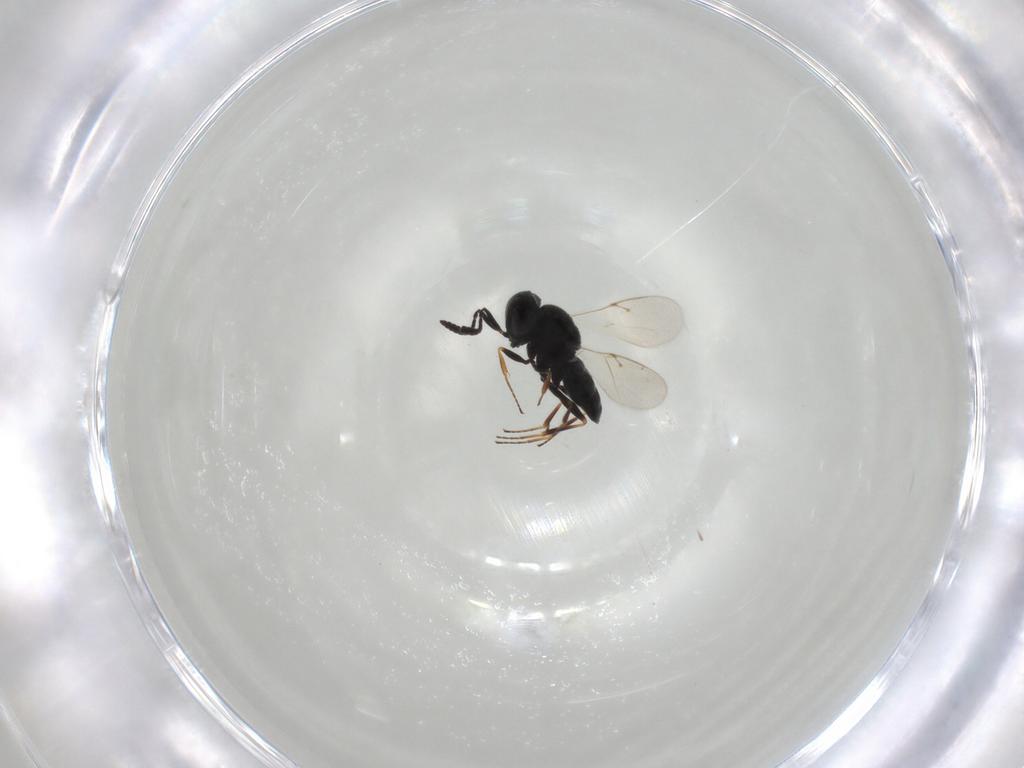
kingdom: Animalia
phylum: Arthropoda
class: Insecta
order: Hymenoptera
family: Scelionidae
